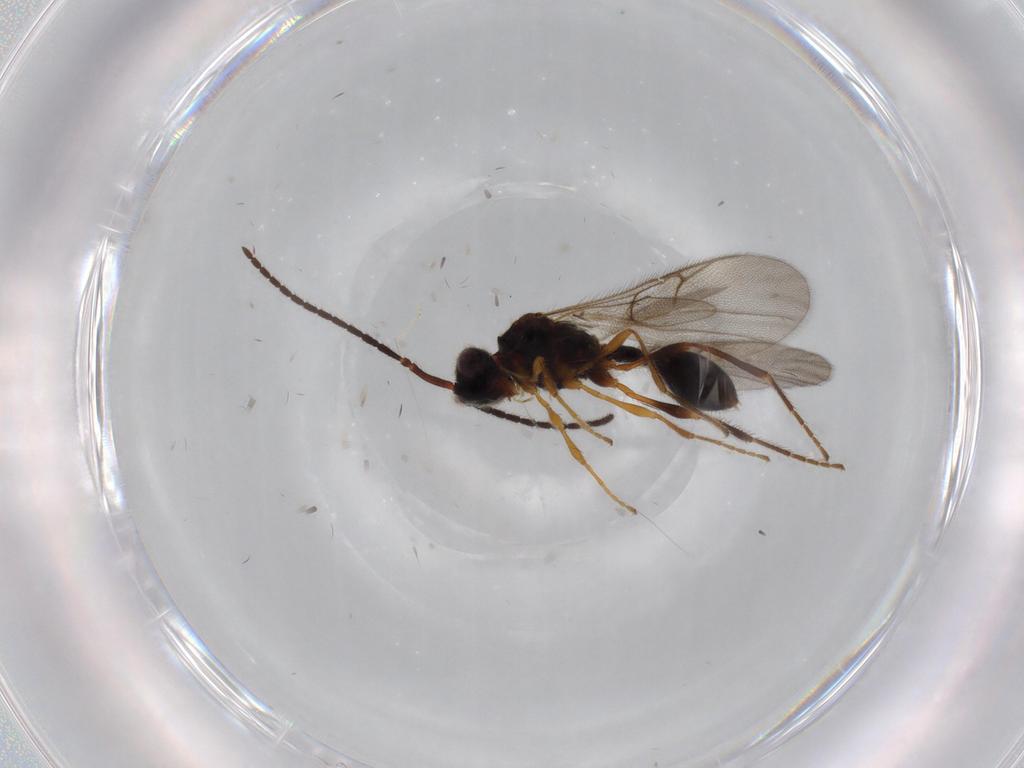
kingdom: Animalia
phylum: Arthropoda
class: Insecta
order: Hymenoptera
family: Diapriidae
